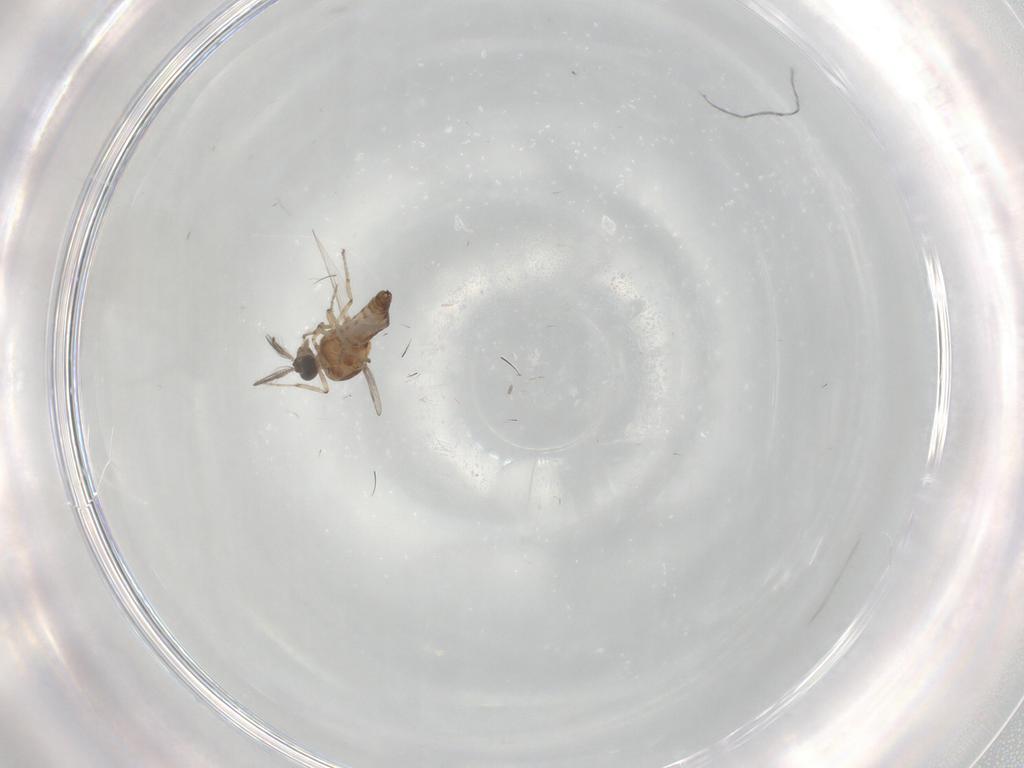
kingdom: Animalia
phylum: Arthropoda
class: Insecta
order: Diptera
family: Ceratopogonidae
